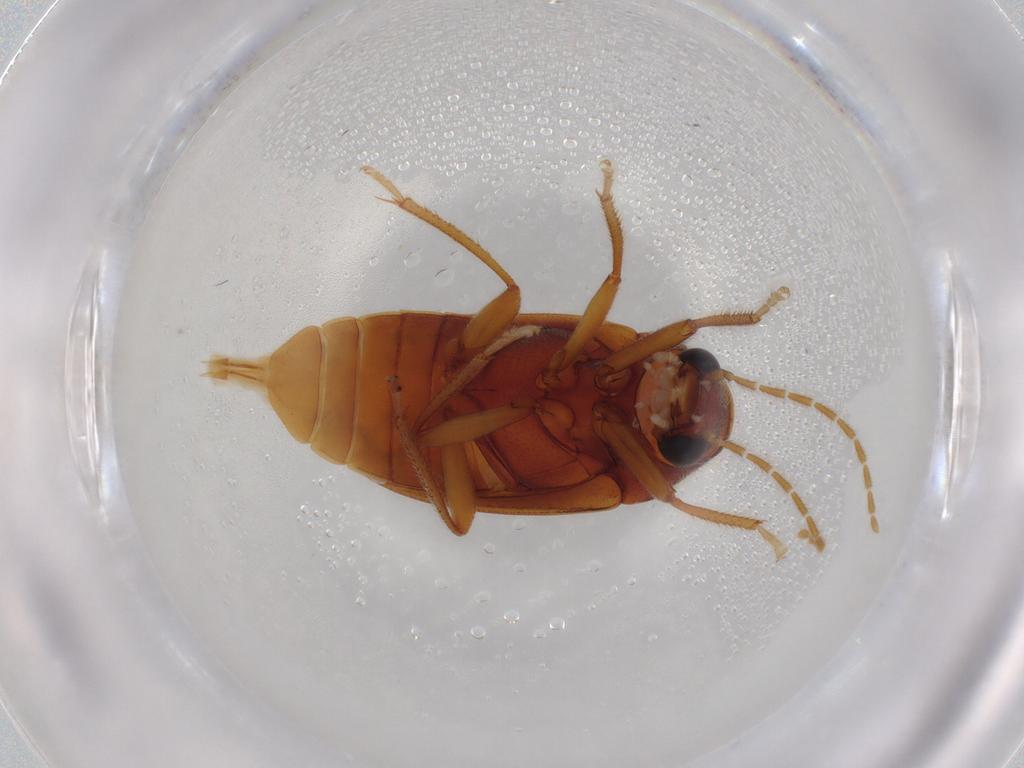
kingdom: Animalia
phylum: Arthropoda
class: Insecta
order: Coleoptera
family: Ptilodactylidae
